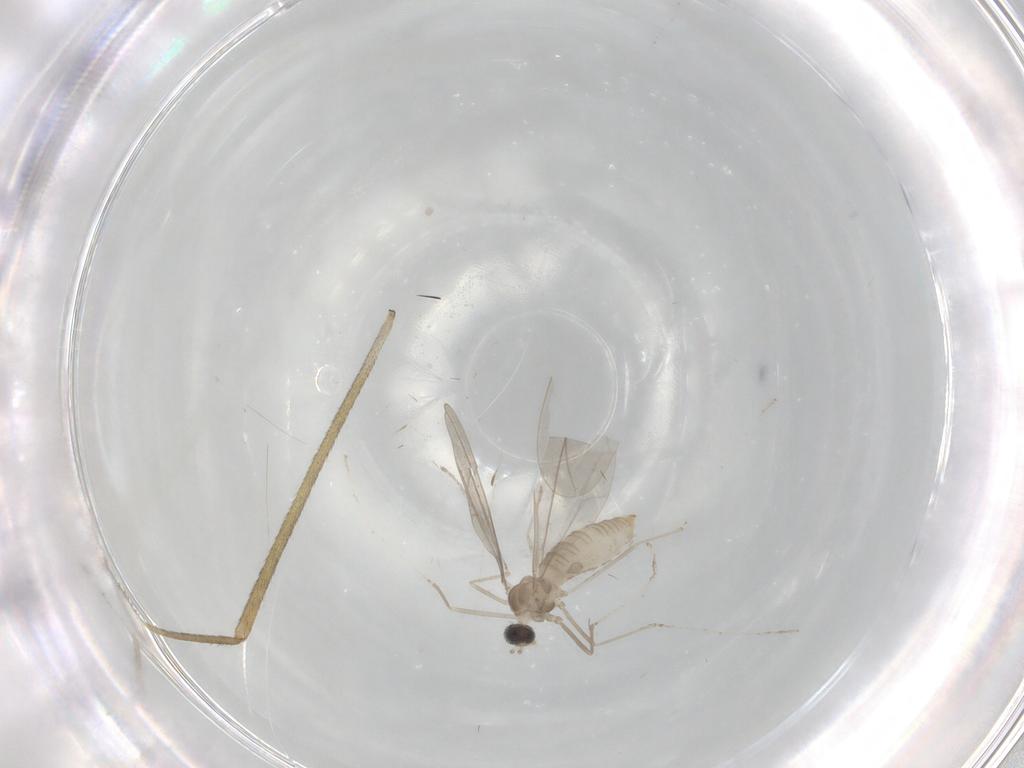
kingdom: Animalia
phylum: Arthropoda
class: Insecta
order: Diptera
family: Limoniidae
